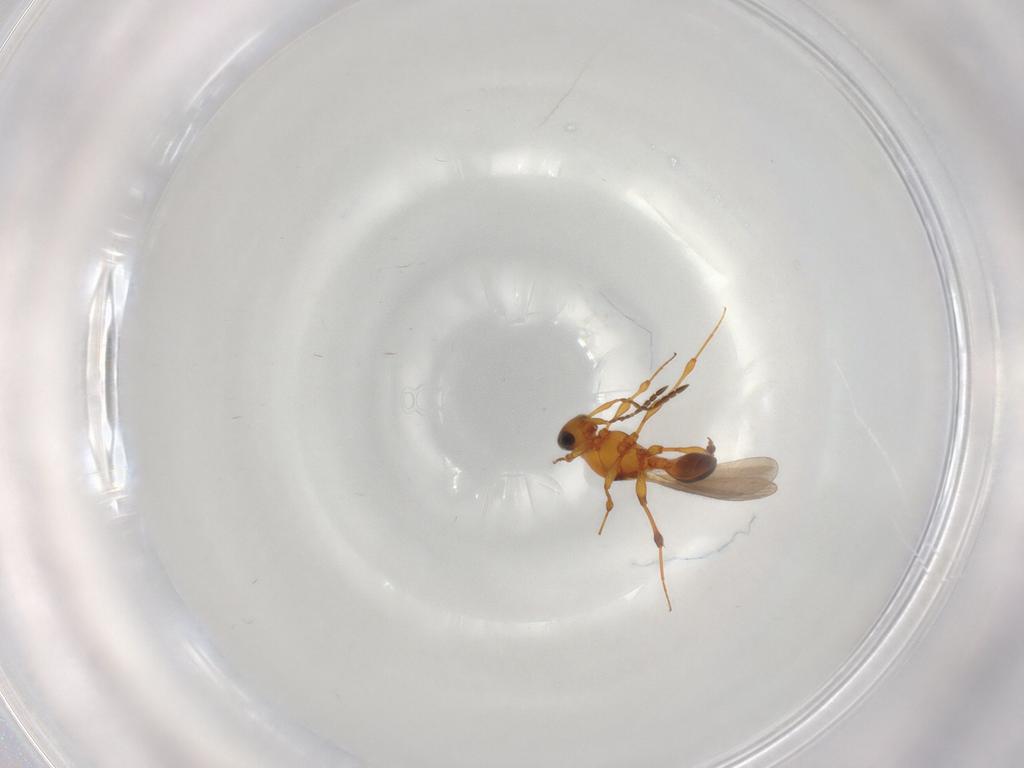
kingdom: Animalia
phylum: Arthropoda
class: Insecta
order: Hymenoptera
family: Platygastridae
